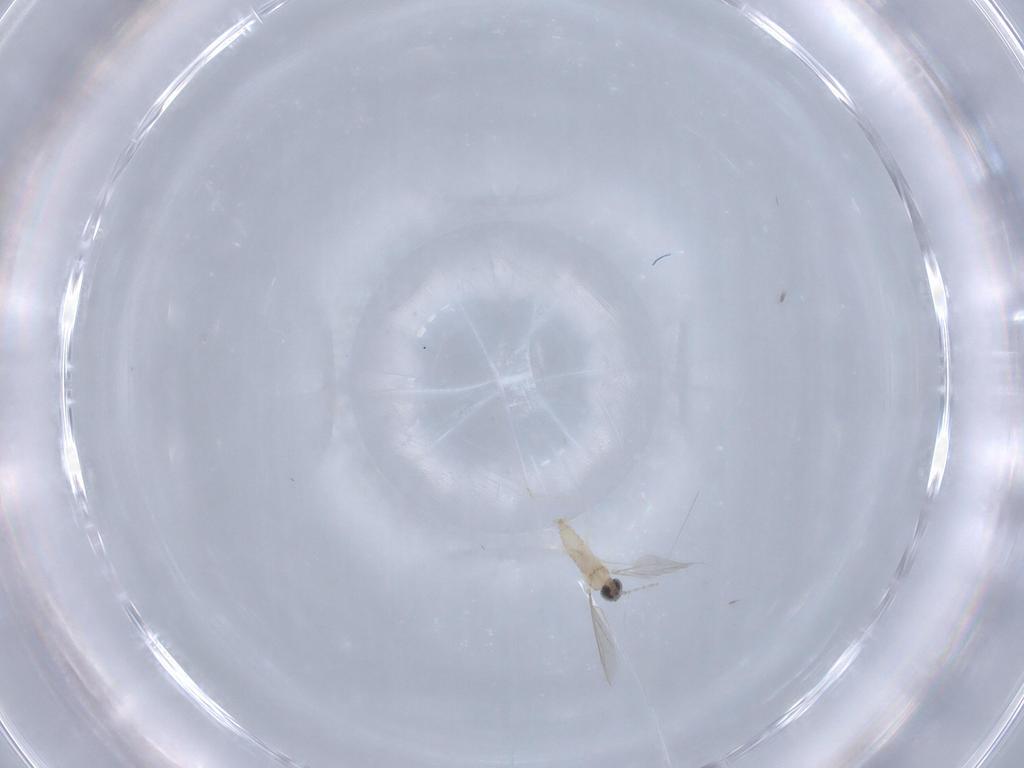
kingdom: Animalia
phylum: Arthropoda
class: Insecta
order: Diptera
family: Cecidomyiidae
